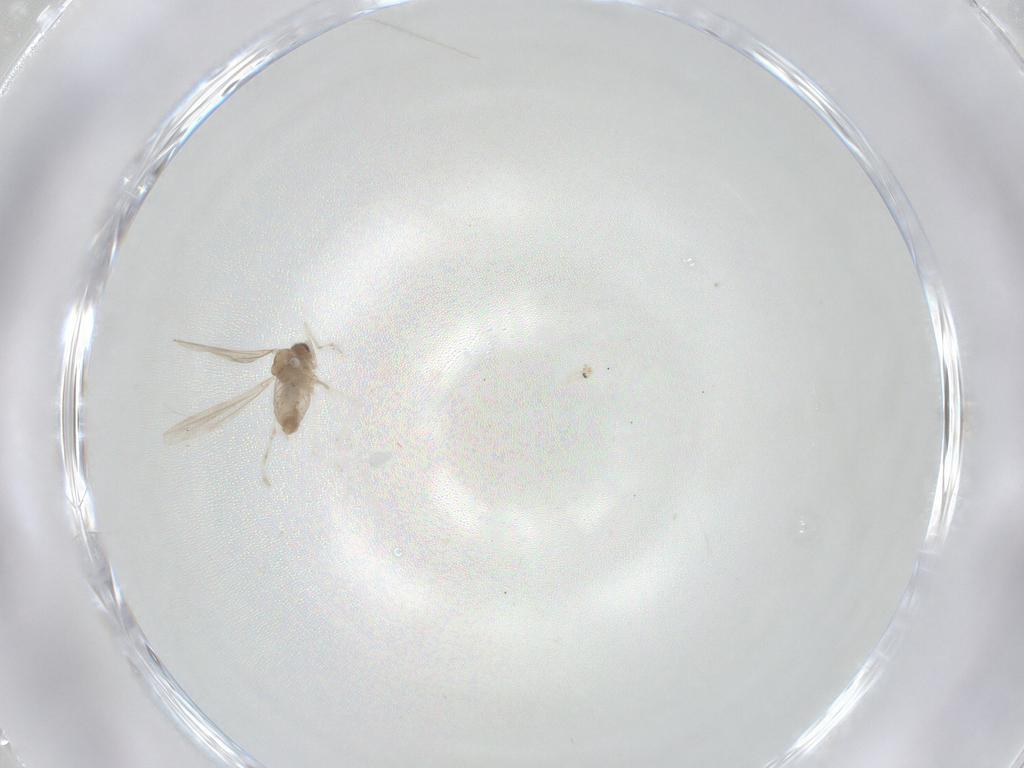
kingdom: Animalia
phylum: Arthropoda
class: Insecta
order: Diptera
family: Cecidomyiidae
